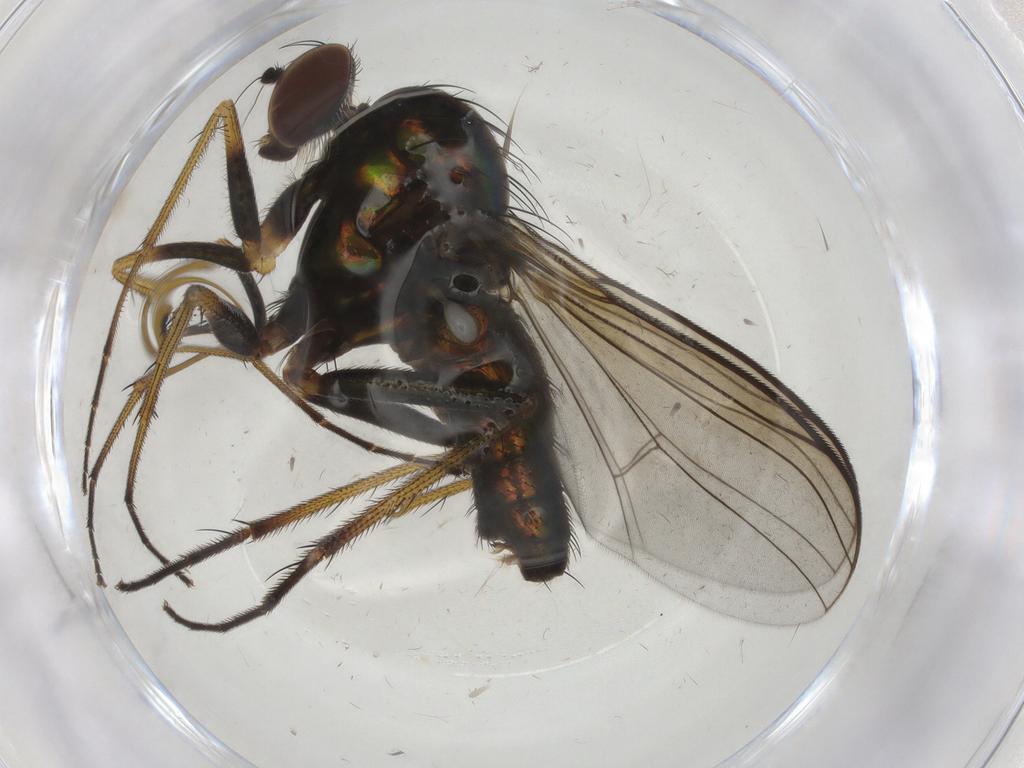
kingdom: Animalia
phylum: Arthropoda
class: Insecta
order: Diptera
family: Dolichopodidae
